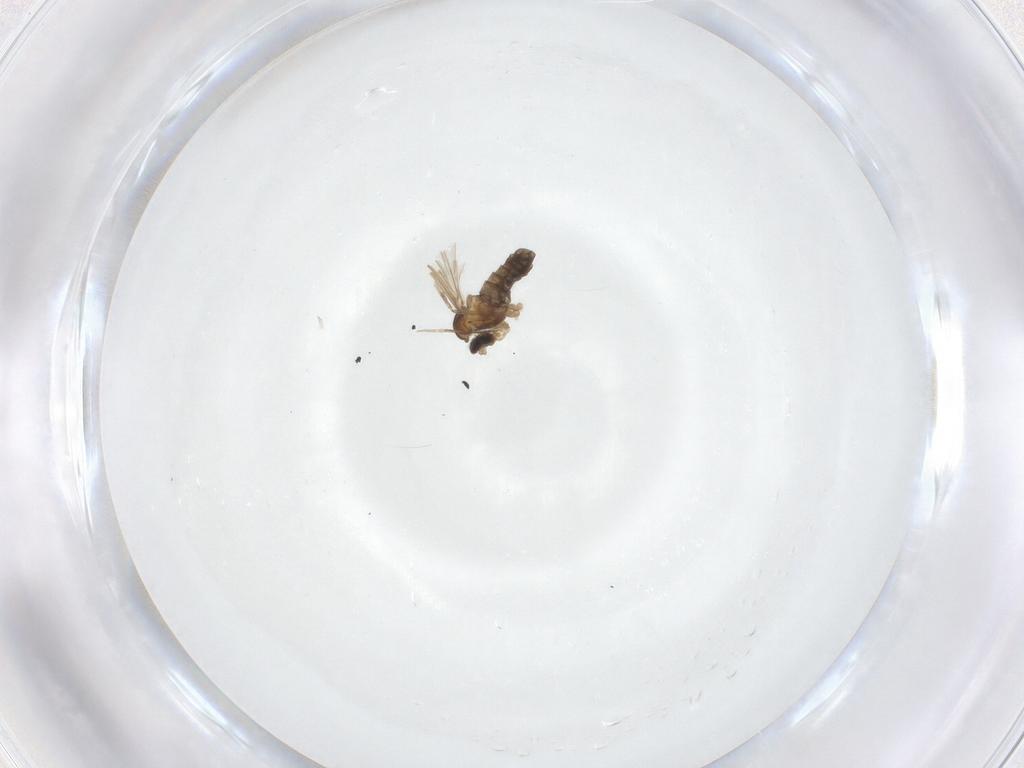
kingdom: Animalia
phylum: Arthropoda
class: Insecta
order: Diptera
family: Cecidomyiidae
